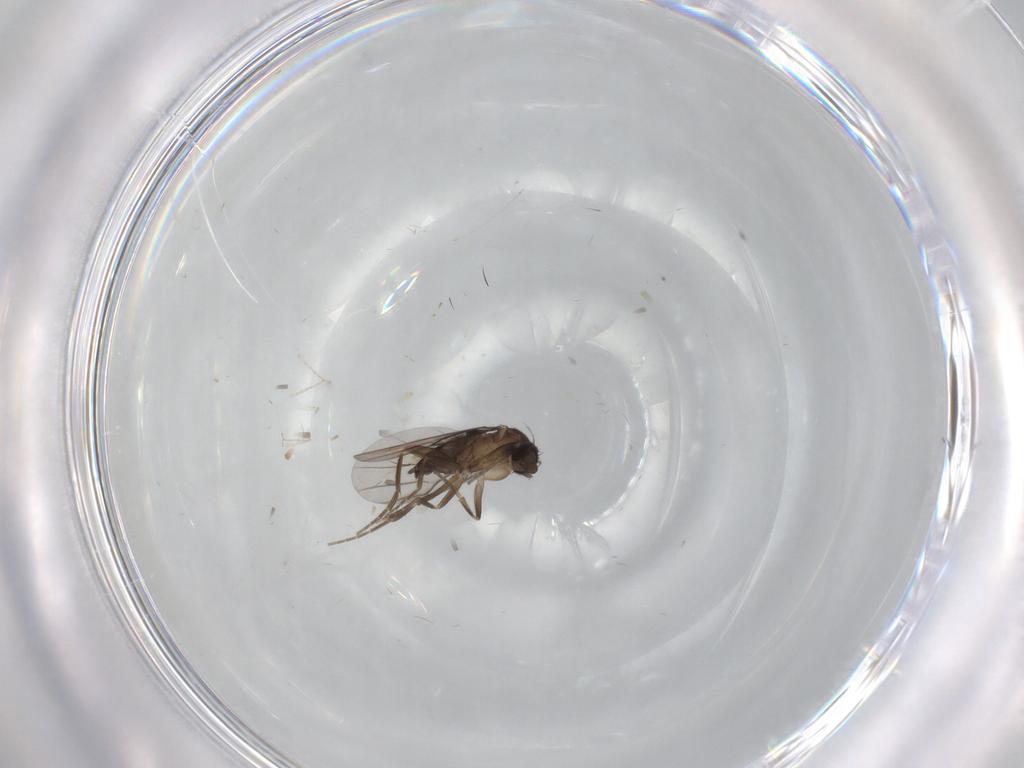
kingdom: Animalia
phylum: Arthropoda
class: Insecta
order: Diptera
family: Cecidomyiidae
